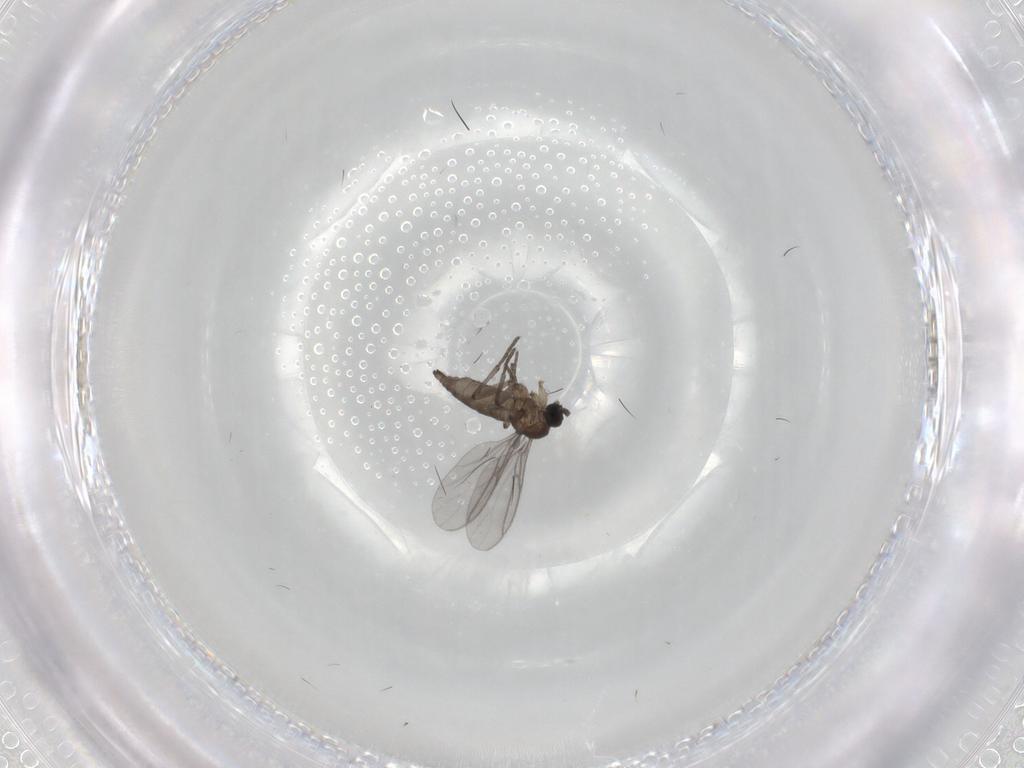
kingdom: Animalia
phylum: Arthropoda
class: Insecta
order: Diptera
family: Sciaridae
